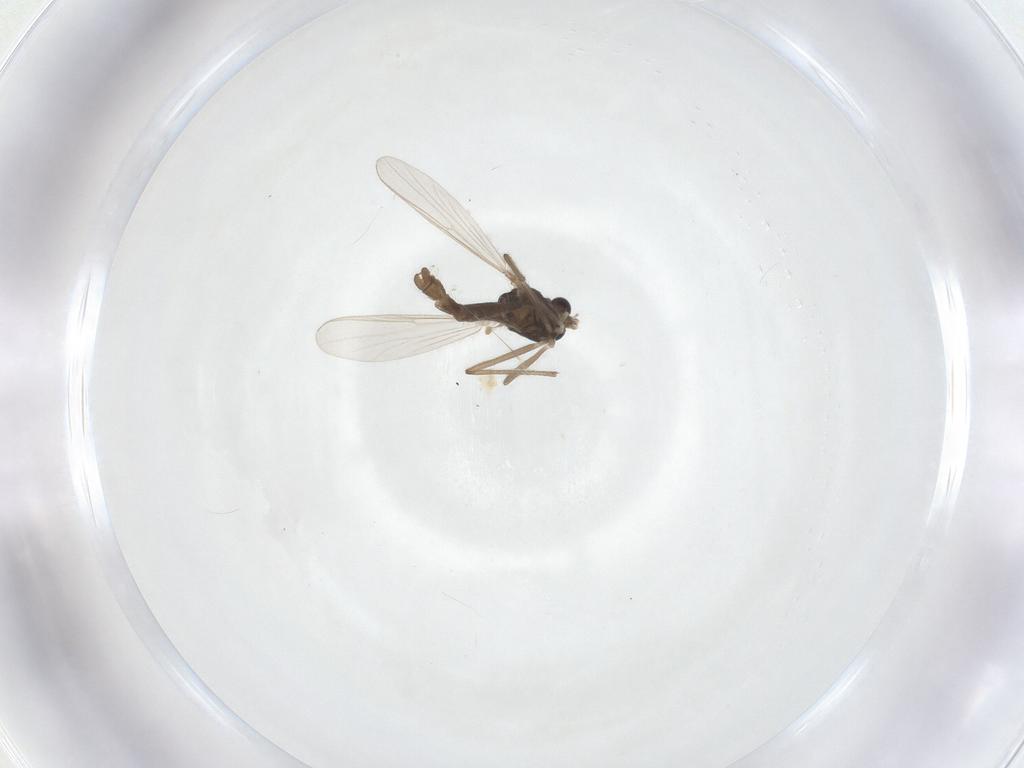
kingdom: Animalia
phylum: Arthropoda
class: Insecta
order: Diptera
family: Chironomidae
